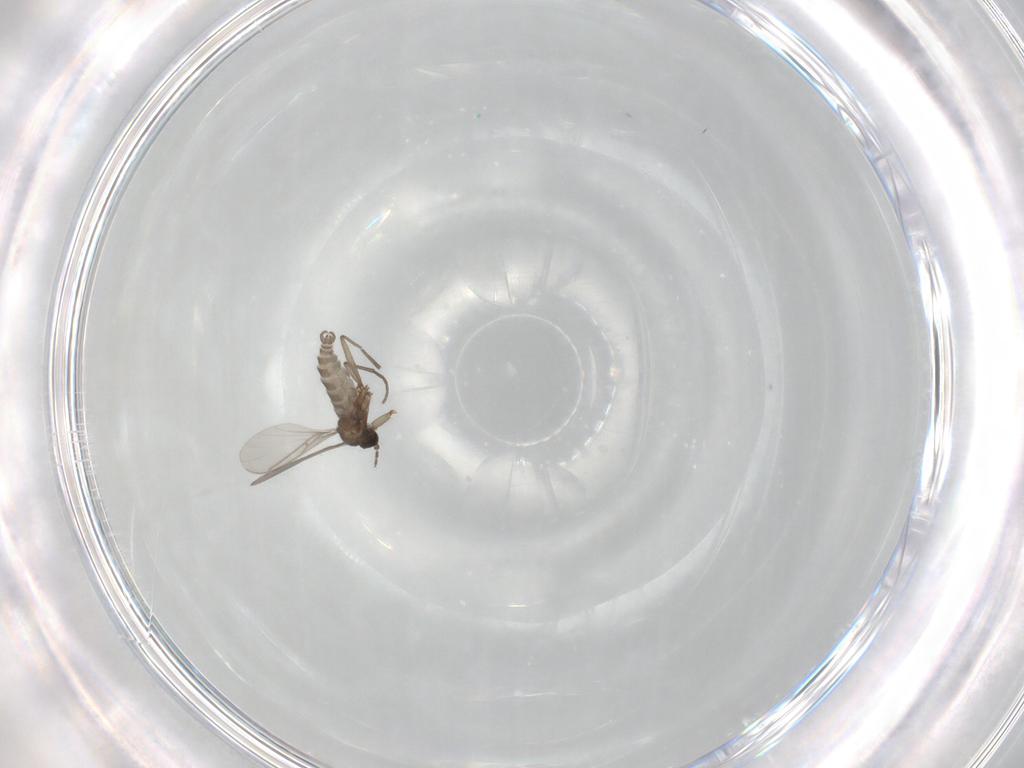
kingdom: Animalia
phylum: Arthropoda
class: Insecta
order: Diptera
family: Sciaridae
